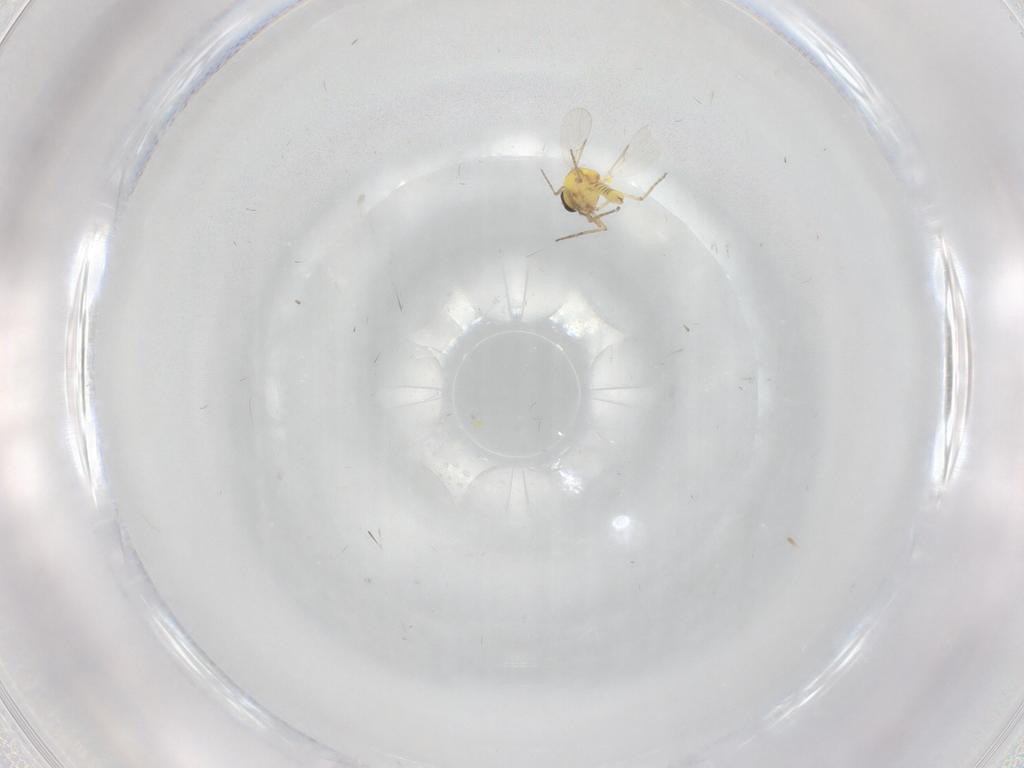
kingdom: Animalia
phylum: Arthropoda
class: Insecta
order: Diptera
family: Ceratopogonidae
